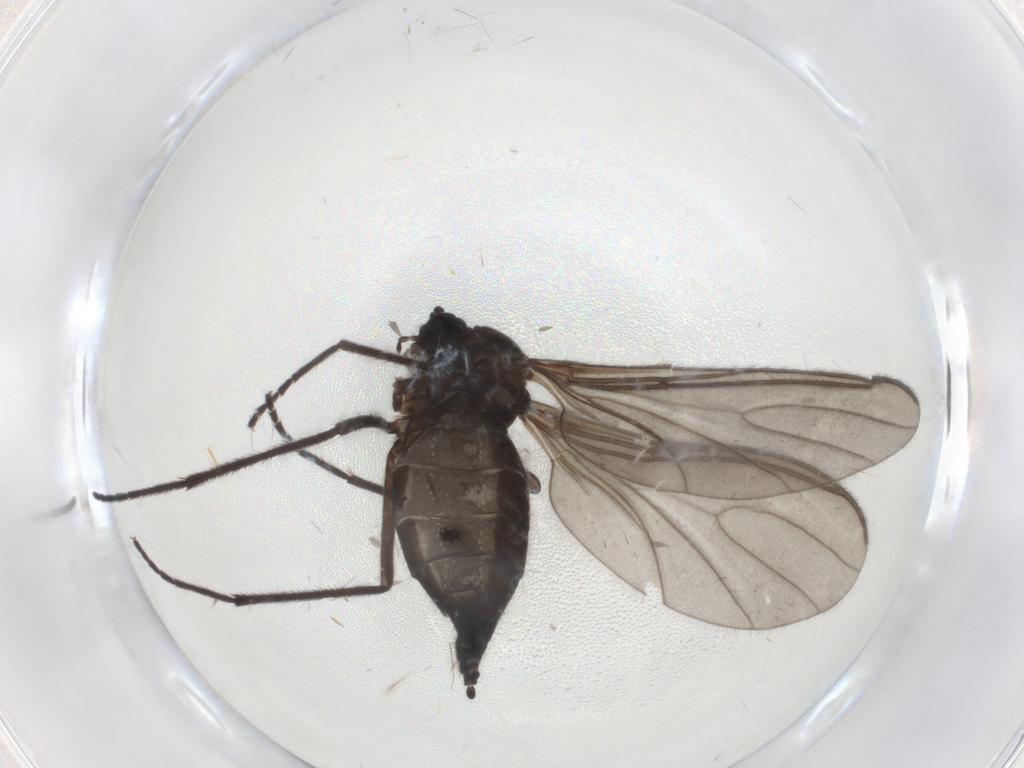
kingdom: Animalia
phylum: Arthropoda
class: Insecta
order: Diptera
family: Sciaridae
